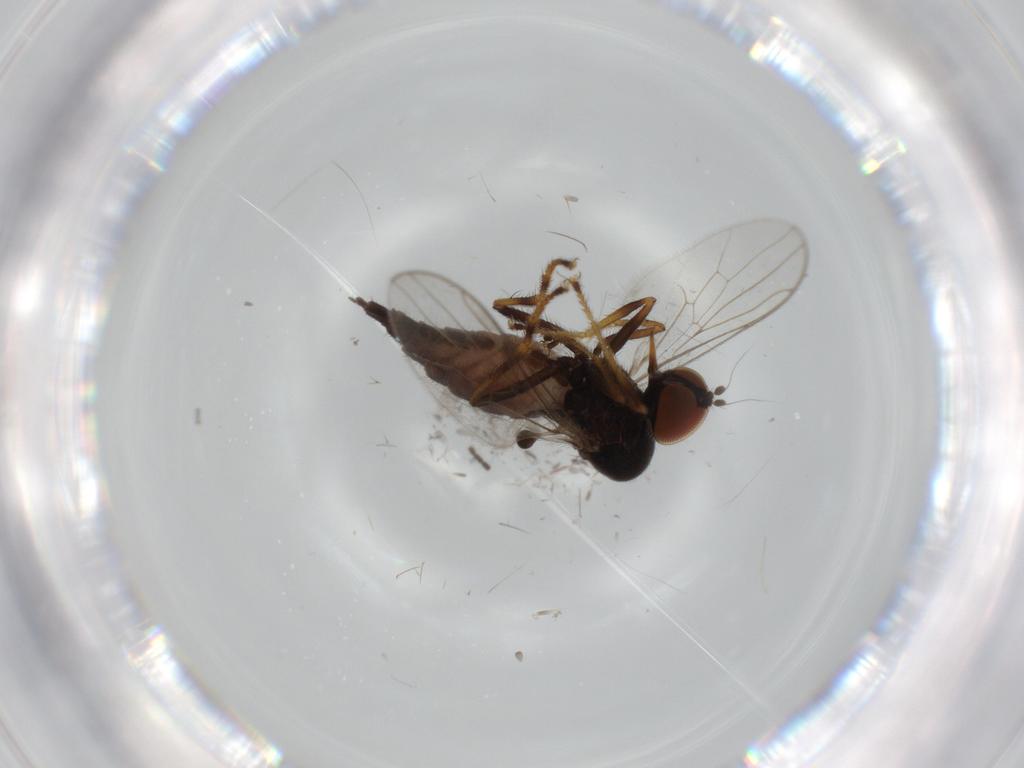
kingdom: Animalia
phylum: Arthropoda
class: Insecta
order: Diptera
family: Hybotidae
